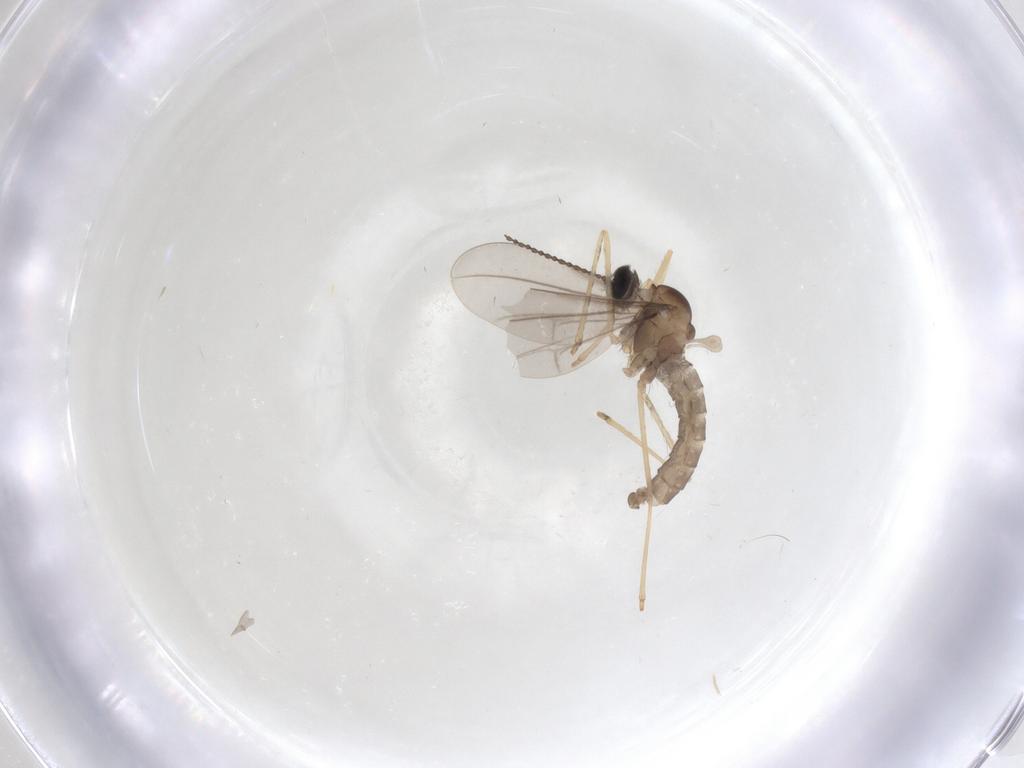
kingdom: Animalia
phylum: Arthropoda
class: Insecta
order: Diptera
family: Cecidomyiidae
